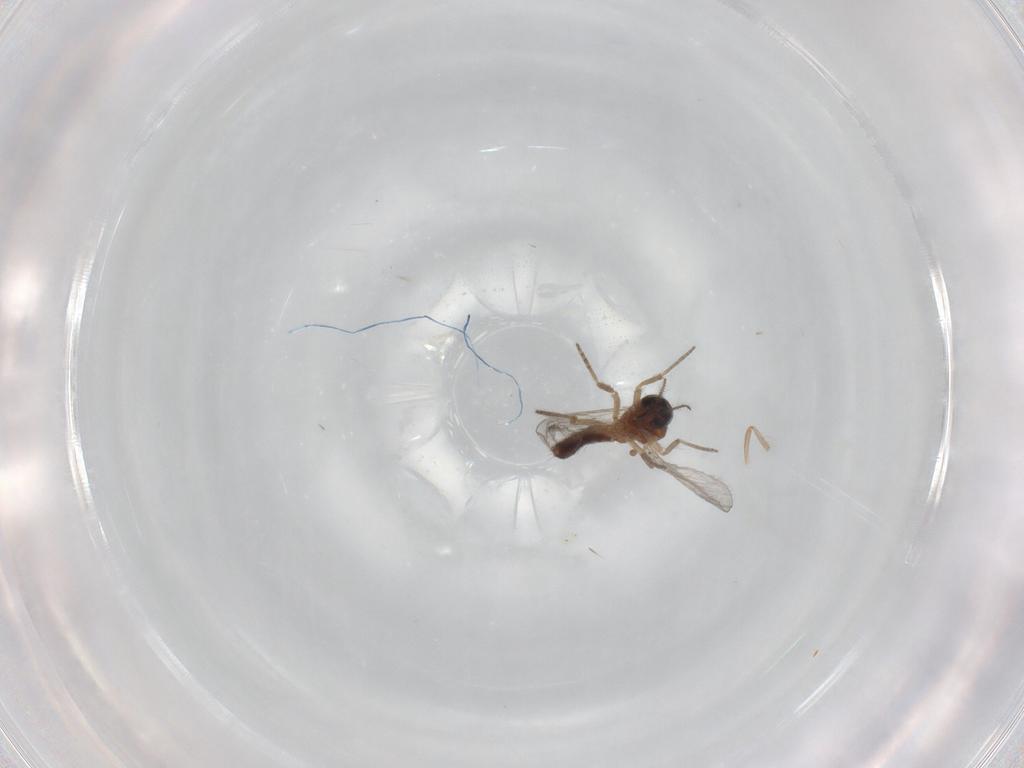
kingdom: Animalia
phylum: Arthropoda
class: Insecta
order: Diptera
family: Ceratopogonidae
